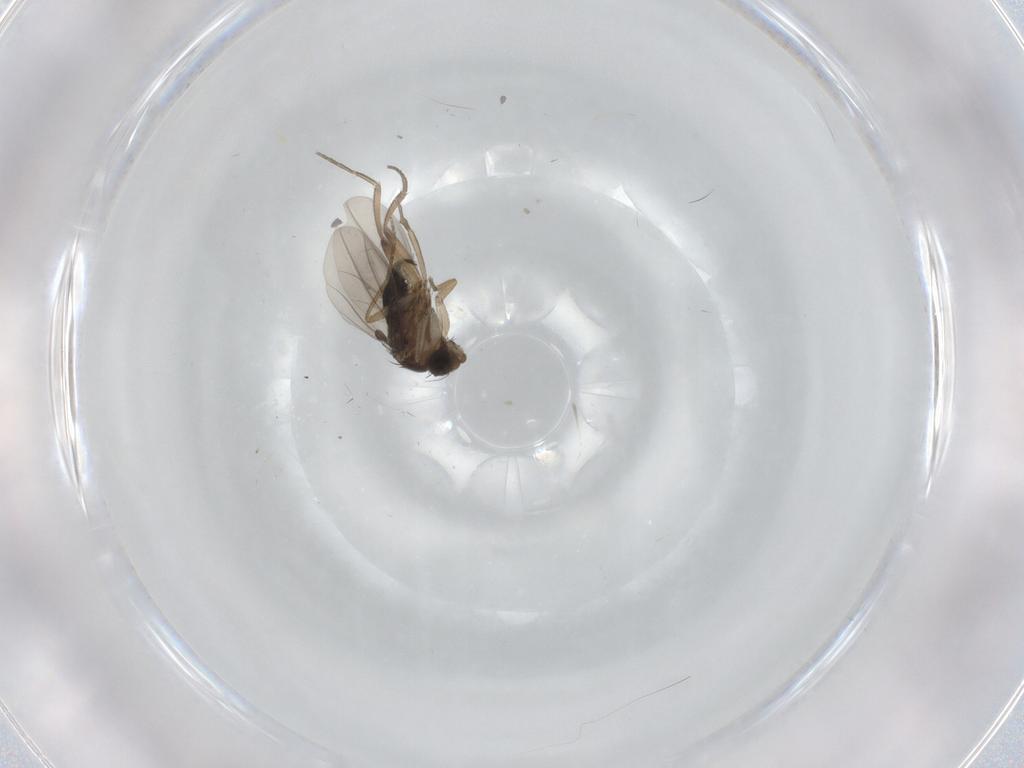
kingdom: Animalia
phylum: Arthropoda
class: Insecta
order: Diptera
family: Phoridae
